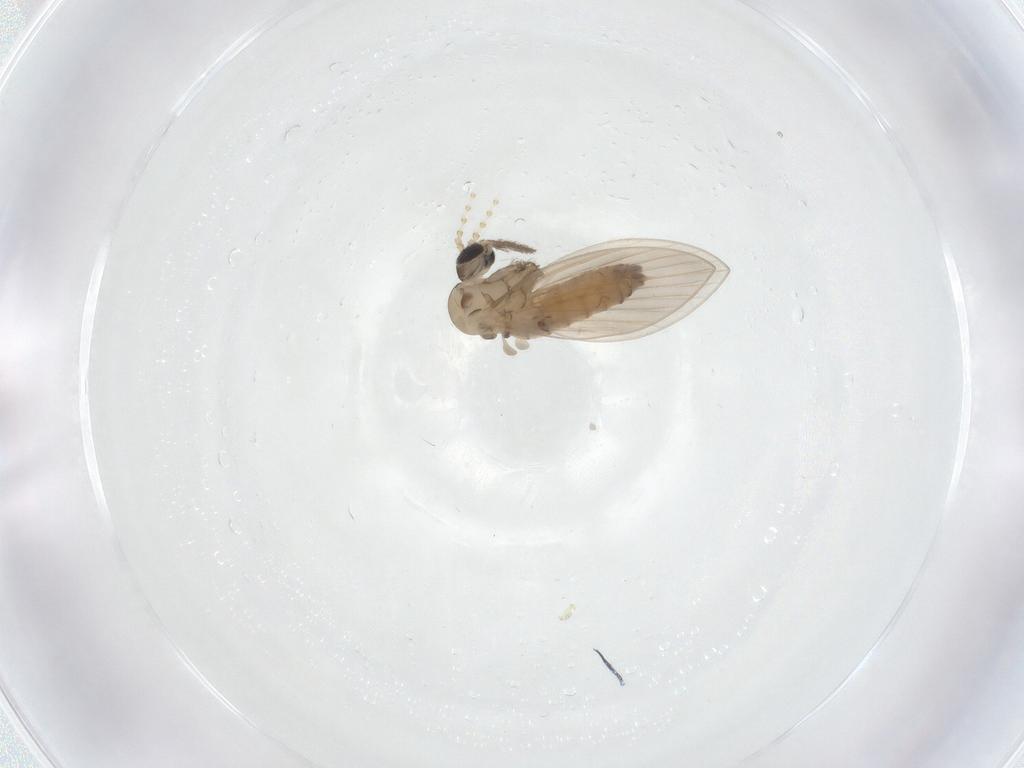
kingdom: Animalia
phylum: Arthropoda
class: Insecta
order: Diptera
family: Psychodidae
